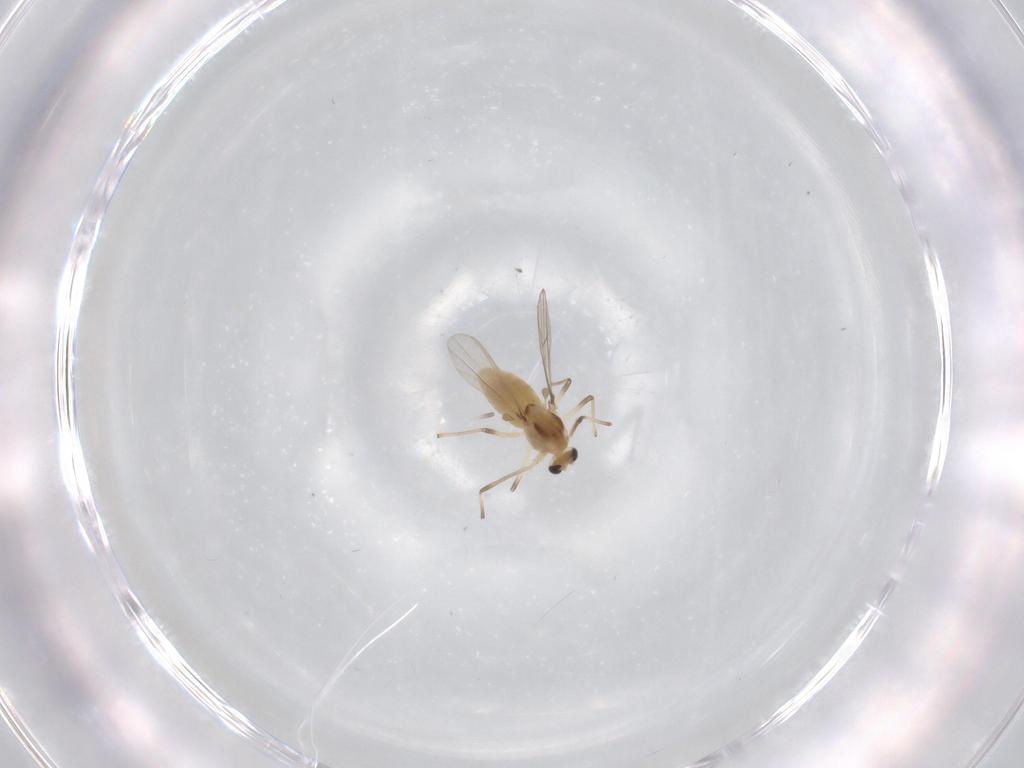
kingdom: Animalia
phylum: Arthropoda
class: Insecta
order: Diptera
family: Chironomidae
